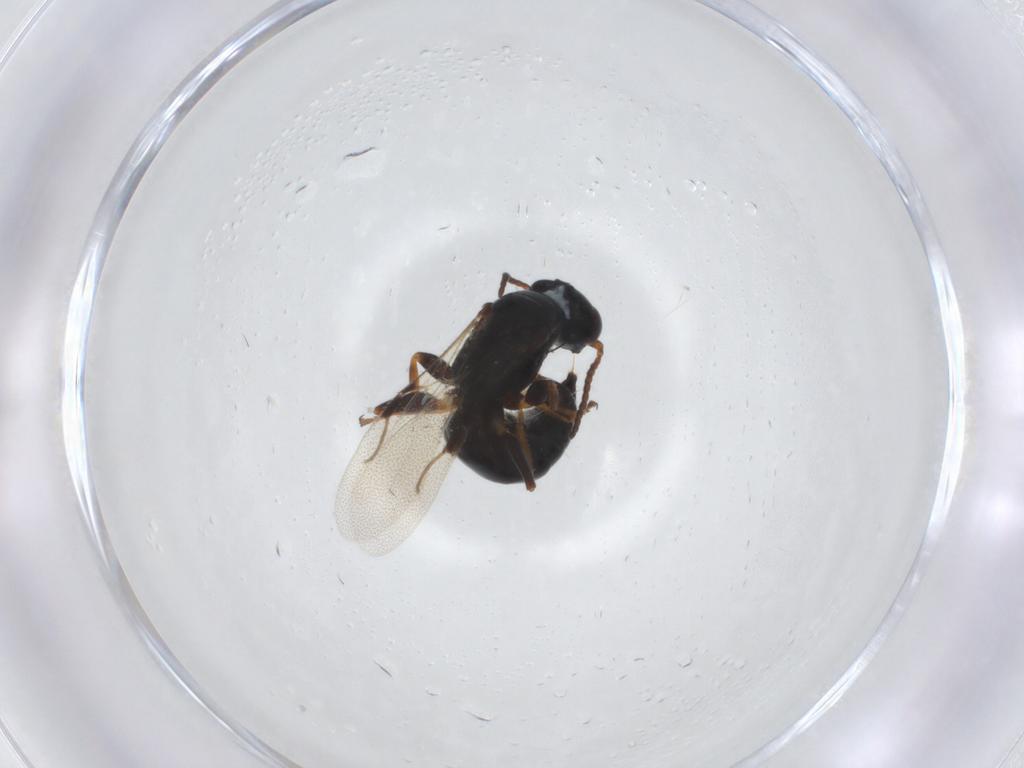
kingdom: Animalia
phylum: Arthropoda
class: Insecta
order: Hymenoptera
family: Bethylidae
